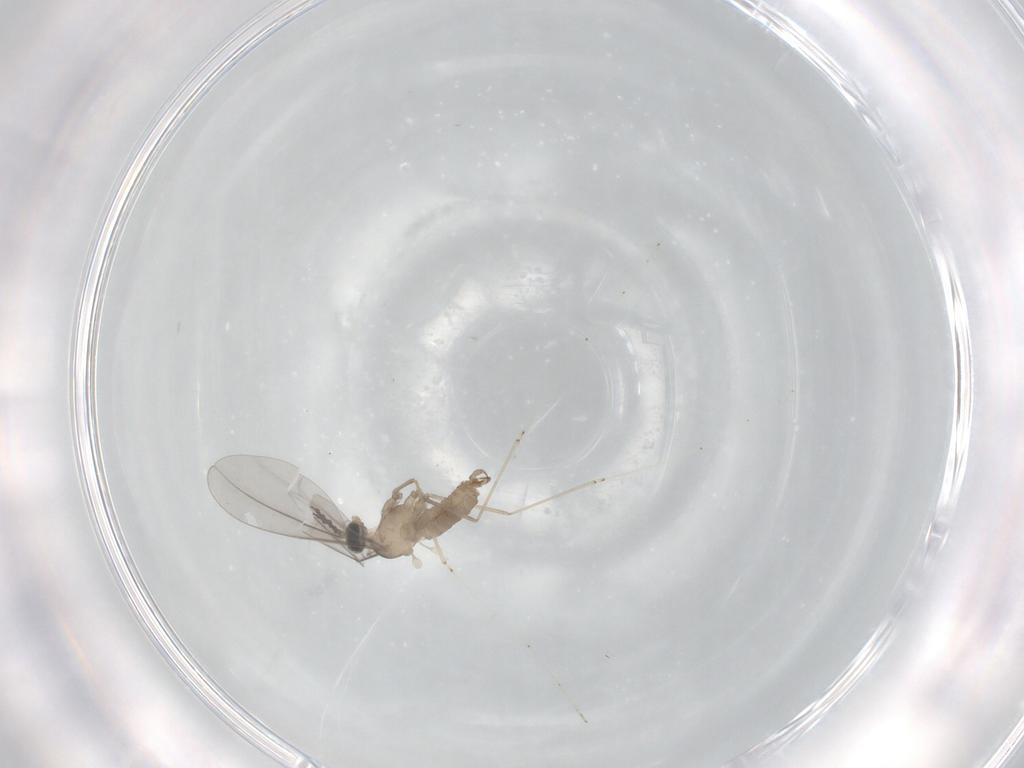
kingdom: Animalia
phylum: Arthropoda
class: Insecta
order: Diptera
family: Cecidomyiidae
